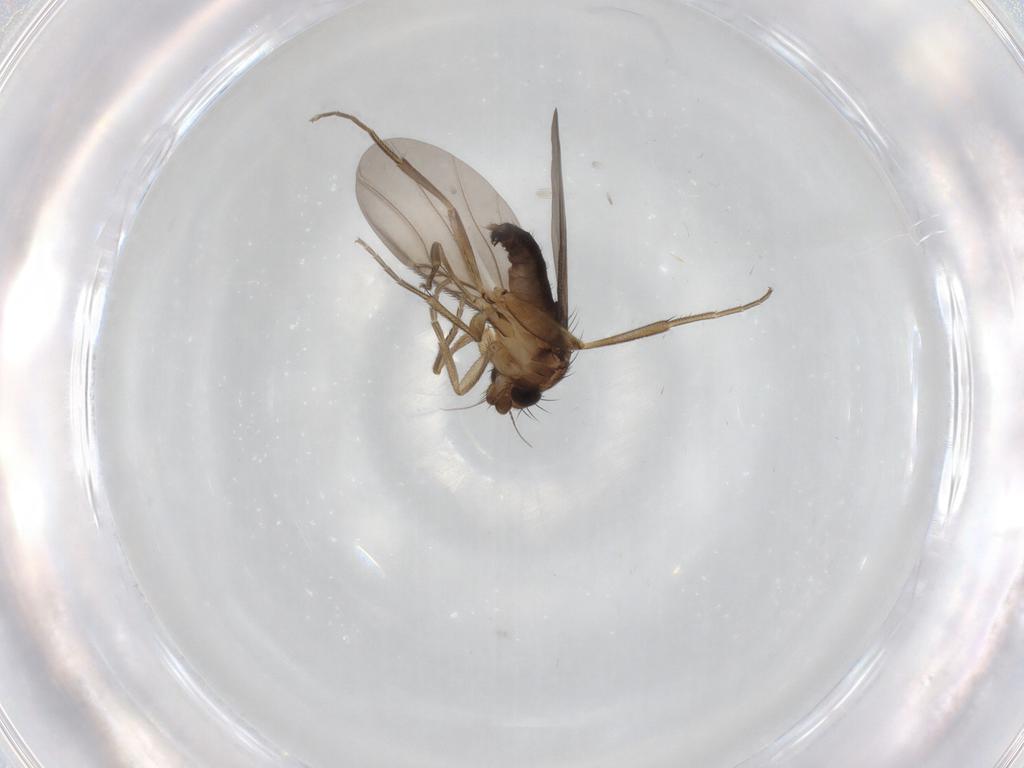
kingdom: Animalia
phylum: Arthropoda
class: Insecta
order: Diptera
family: Phoridae
